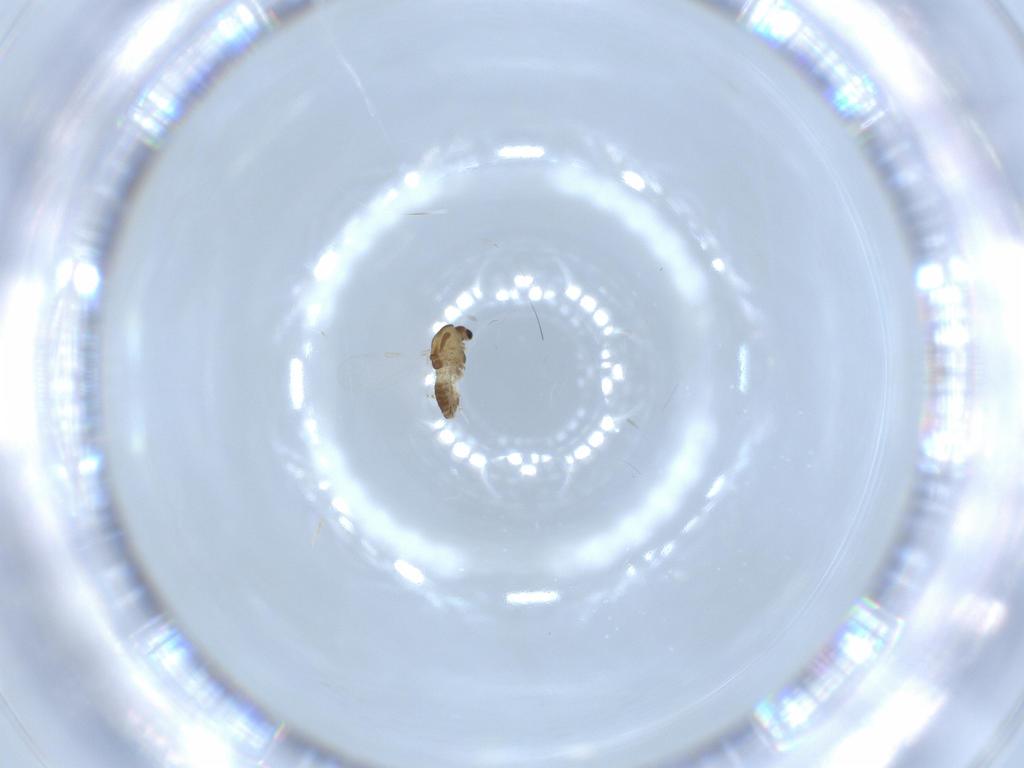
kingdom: Animalia
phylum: Arthropoda
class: Insecta
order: Diptera
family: Chironomidae
